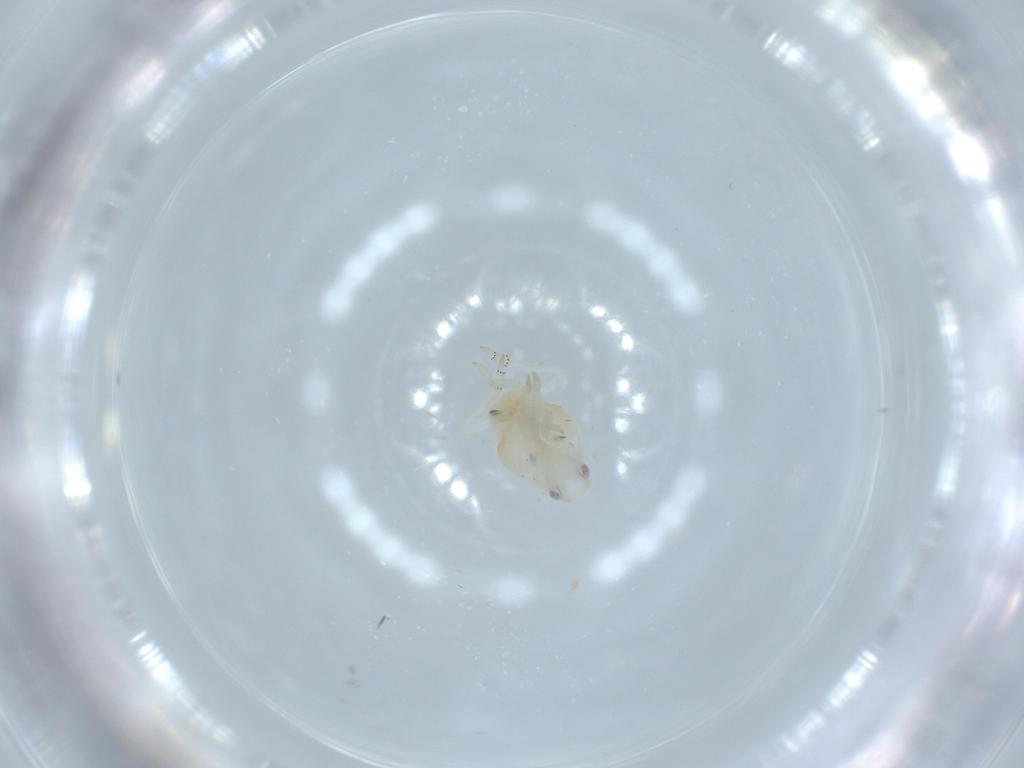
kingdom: Animalia
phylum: Arthropoda
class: Insecta
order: Hemiptera
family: Flatidae
